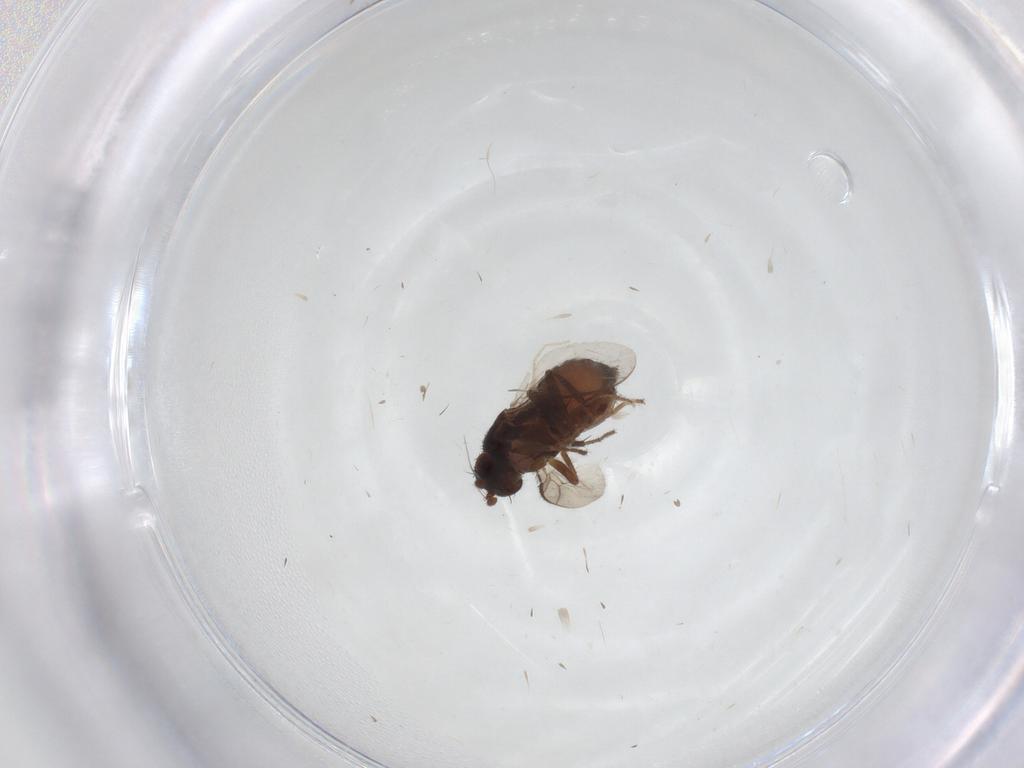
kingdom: Animalia
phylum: Arthropoda
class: Insecta
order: Diptera
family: Sphaeroceridae
